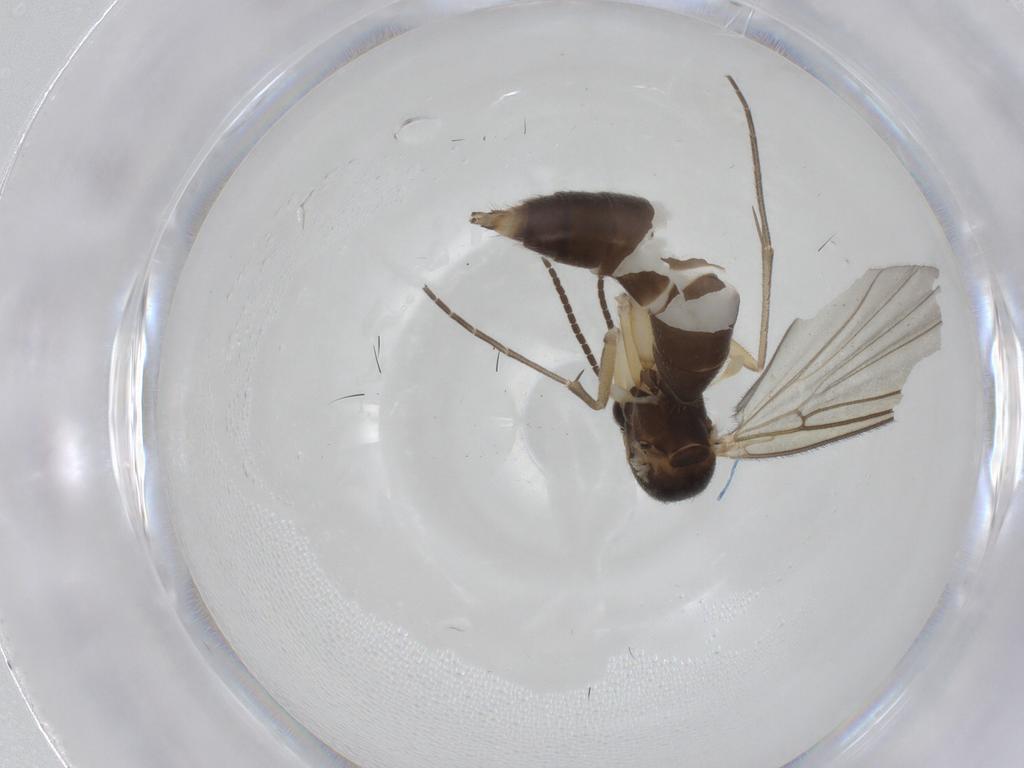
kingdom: Animalia
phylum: Arthropoda
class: Insecta
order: Diptera
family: Mycetophilidae
